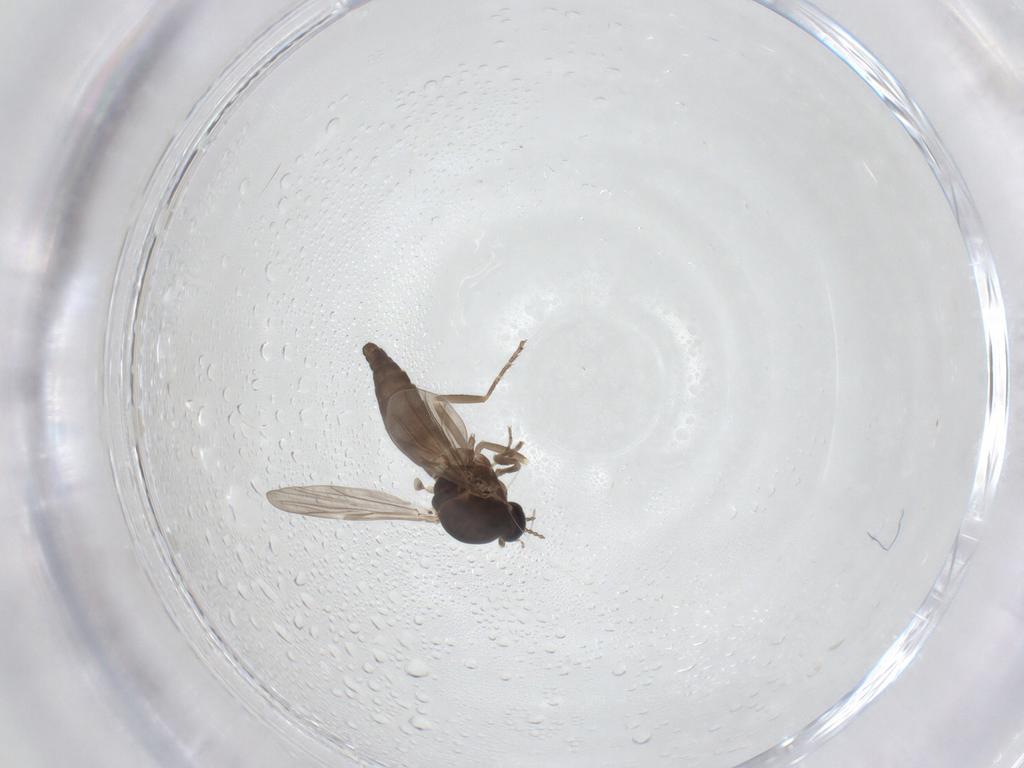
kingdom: Animalia
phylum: Arthropoda
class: Insecta
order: Diptera
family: Ceratopogonidae
